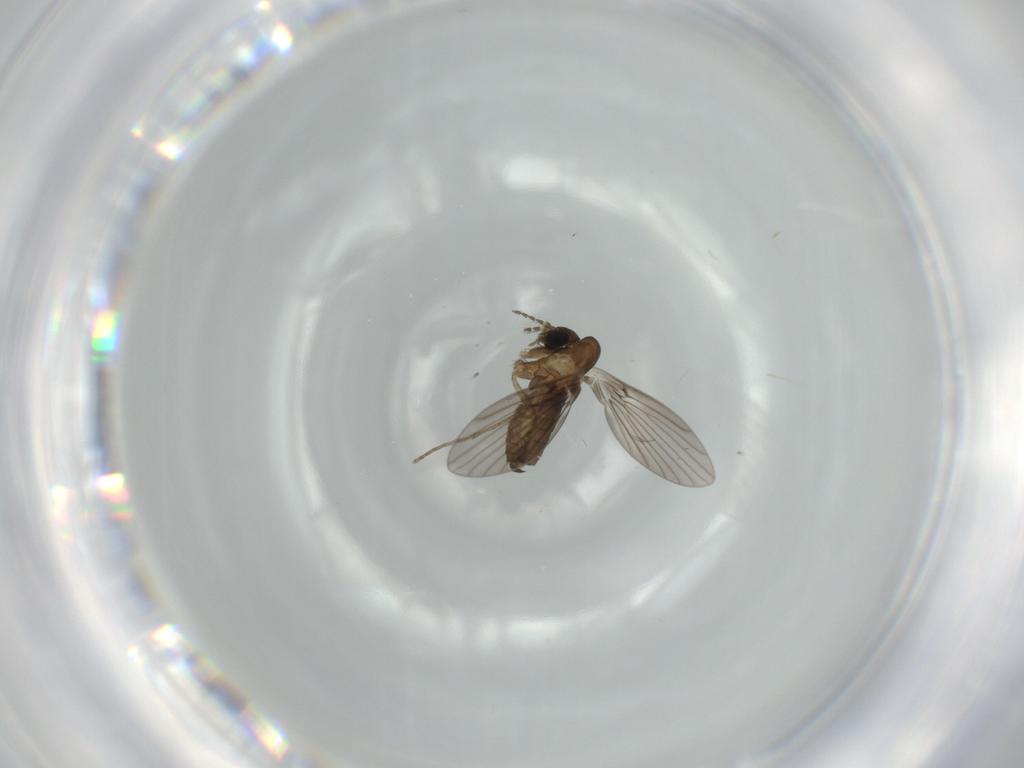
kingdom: Animalia
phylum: Arthropoda
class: Insecta
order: Diptera
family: Psychodidae
